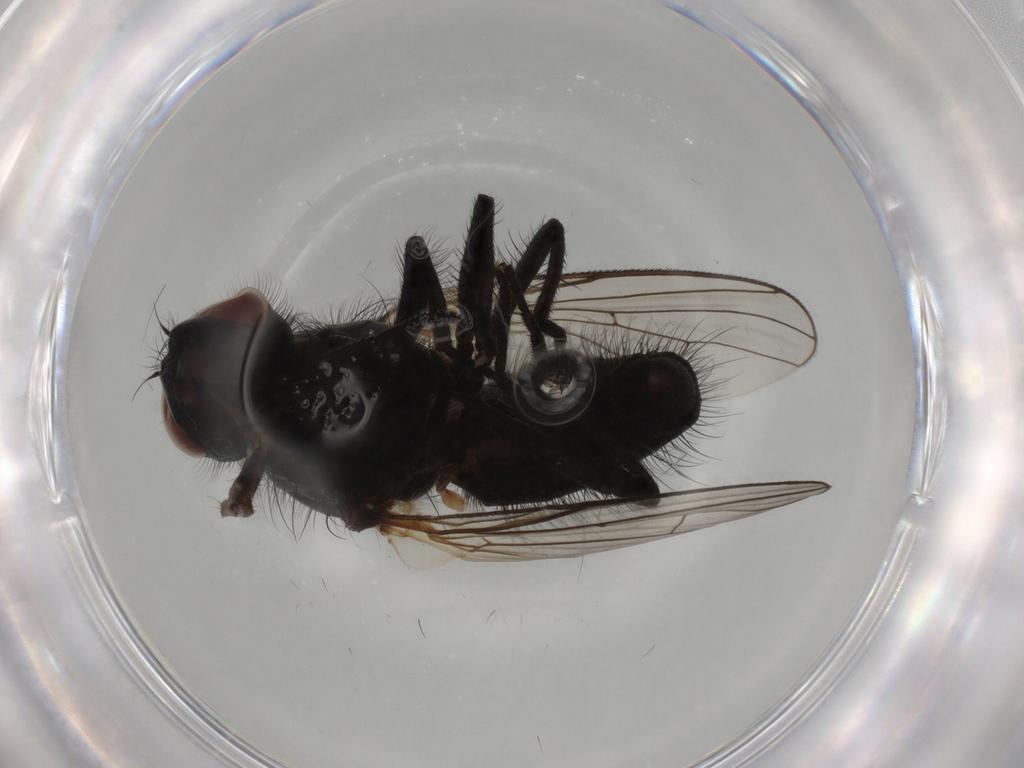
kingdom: Animalia
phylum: Arthropoda
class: Insecta
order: Diptera
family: Anthomyiidae
